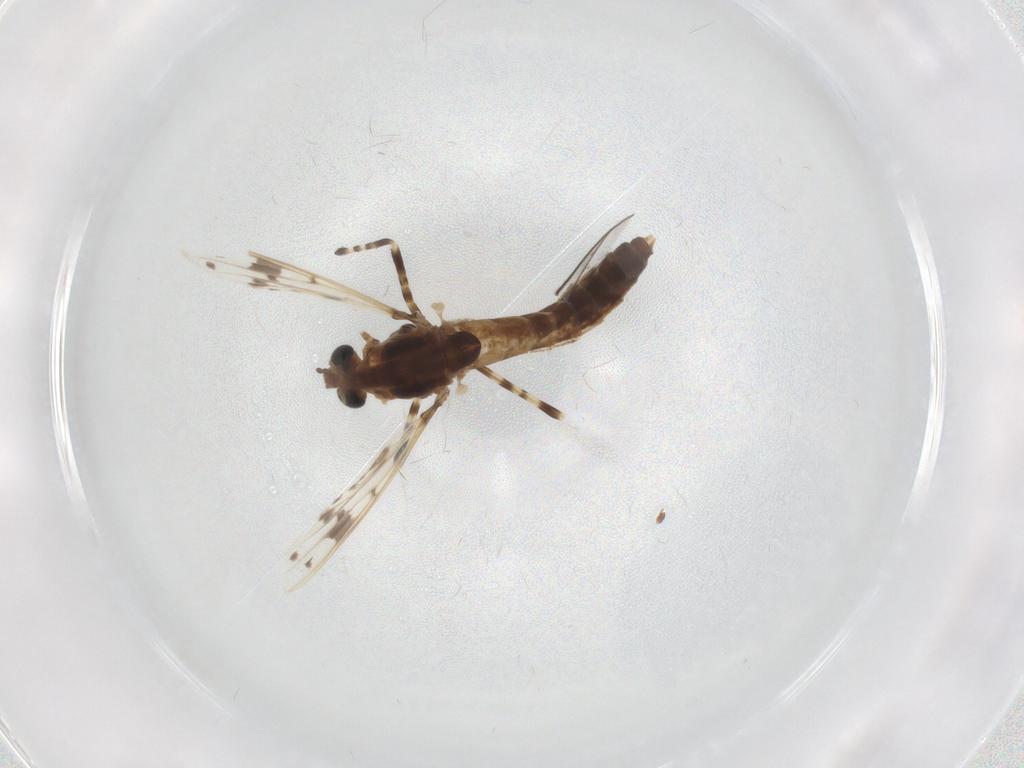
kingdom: Animalia
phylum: Arthropoda
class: Insecta
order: Diptera
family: Chironomidae
